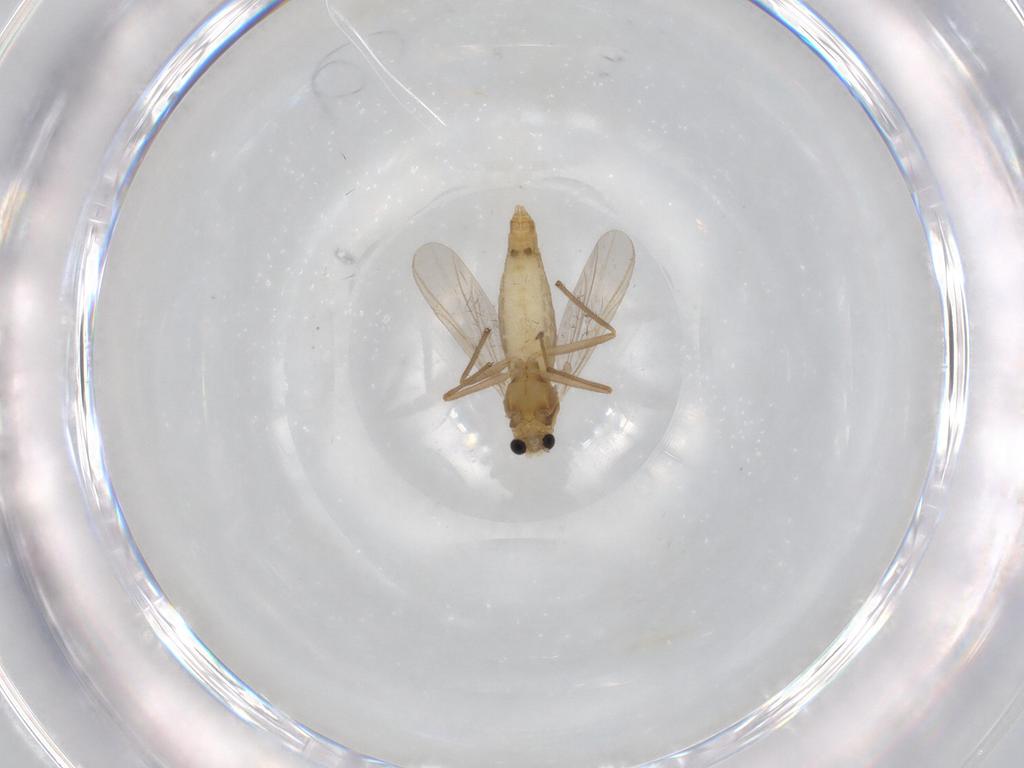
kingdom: Animalia
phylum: Arthropoda
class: Insecta
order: Diptera
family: Chironomidae
